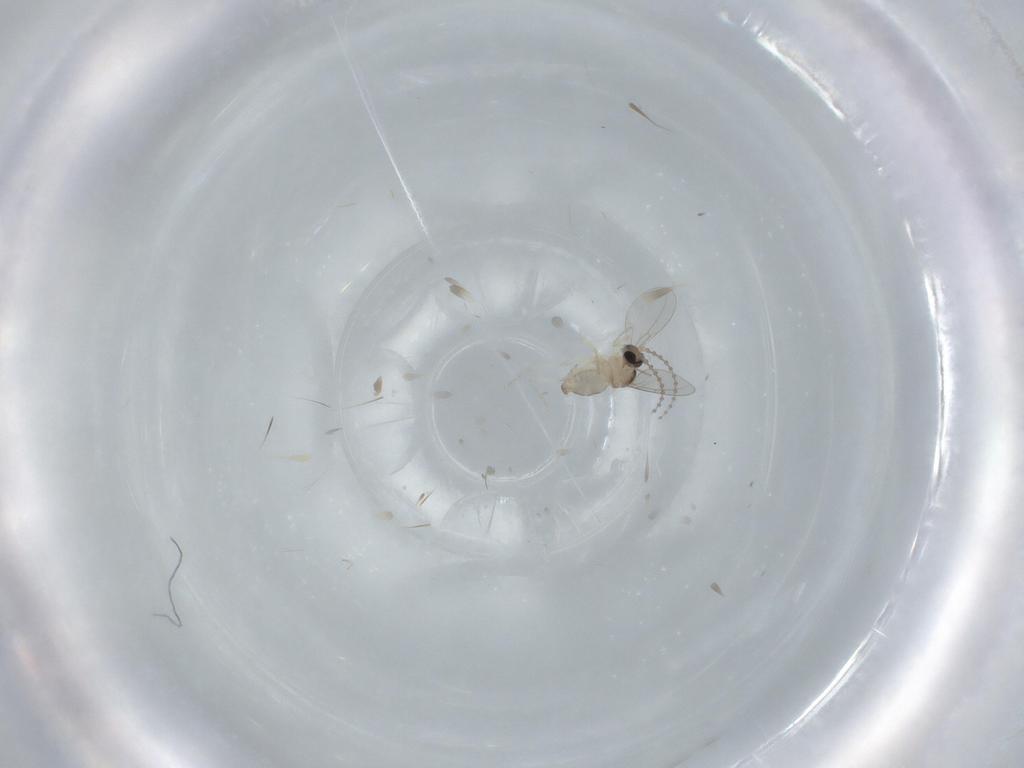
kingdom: Animalia
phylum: Arthropoda
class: Insecta
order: Diptera
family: Cecidomyiidae
